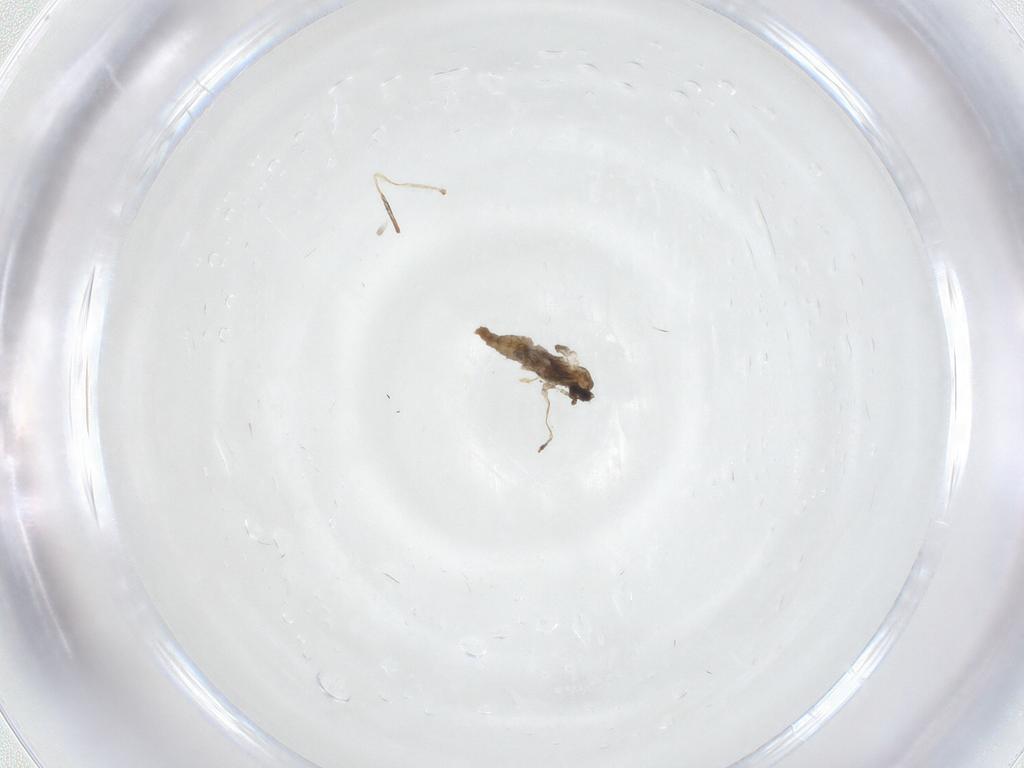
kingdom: Animalia
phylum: Arthropoda
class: Insecta
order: Diptera
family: Cecidomyiidae
